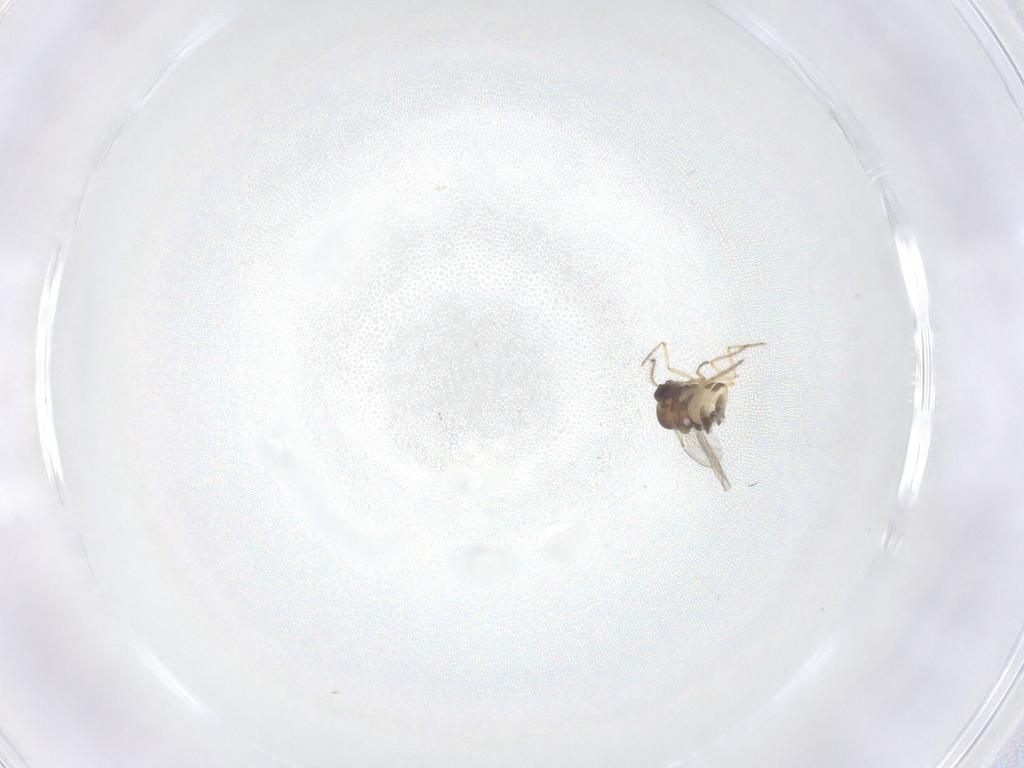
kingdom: Animalia
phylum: Arthropoda
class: Insecta
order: Diptera
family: Ceratopogonidae
